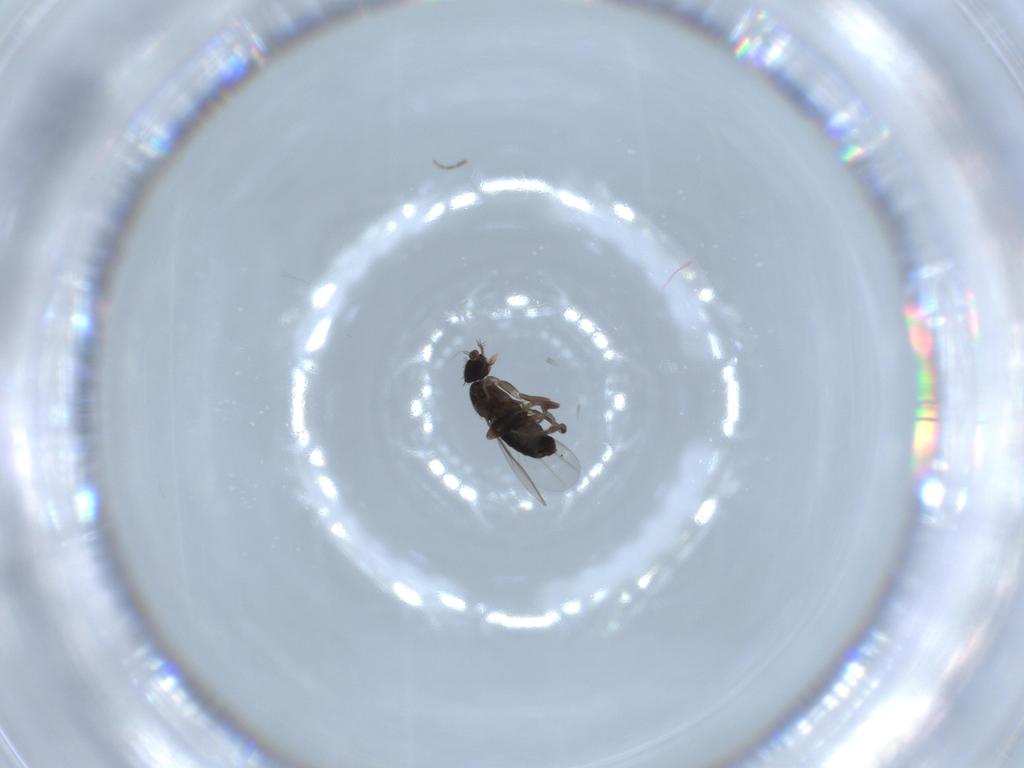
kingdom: Animalia
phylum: Arthropoda
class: Insecta
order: Diptera
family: Phoridae
